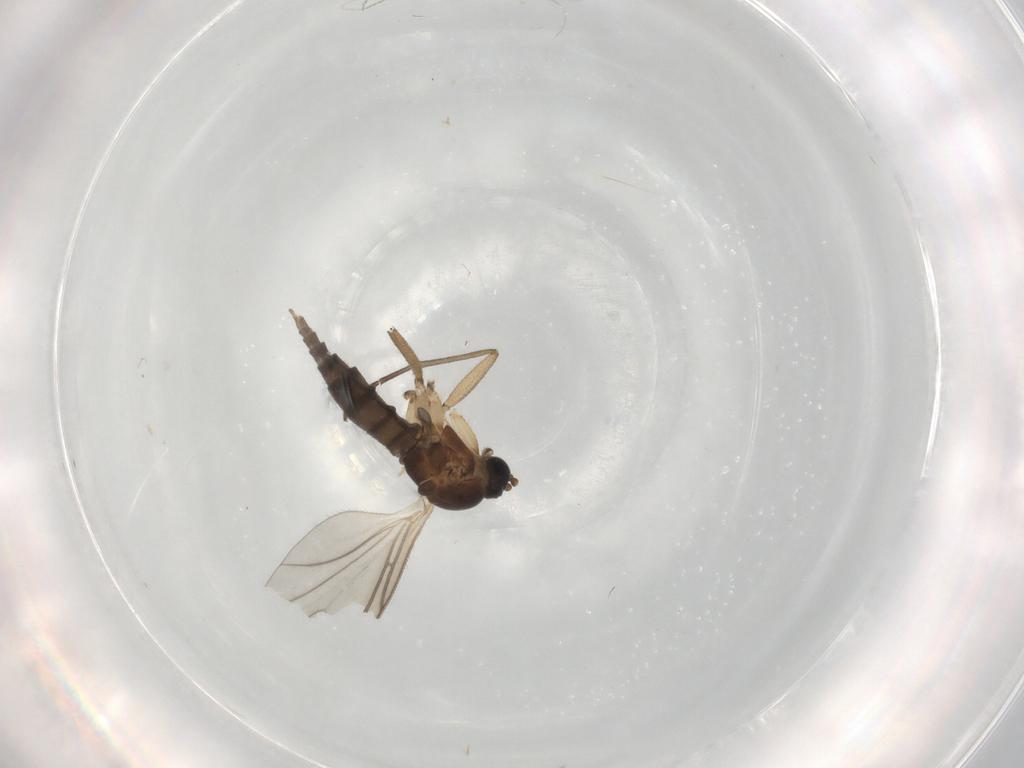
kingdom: Animalia
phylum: Arthropoda
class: Insecta
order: Diptera
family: Sciaridae
